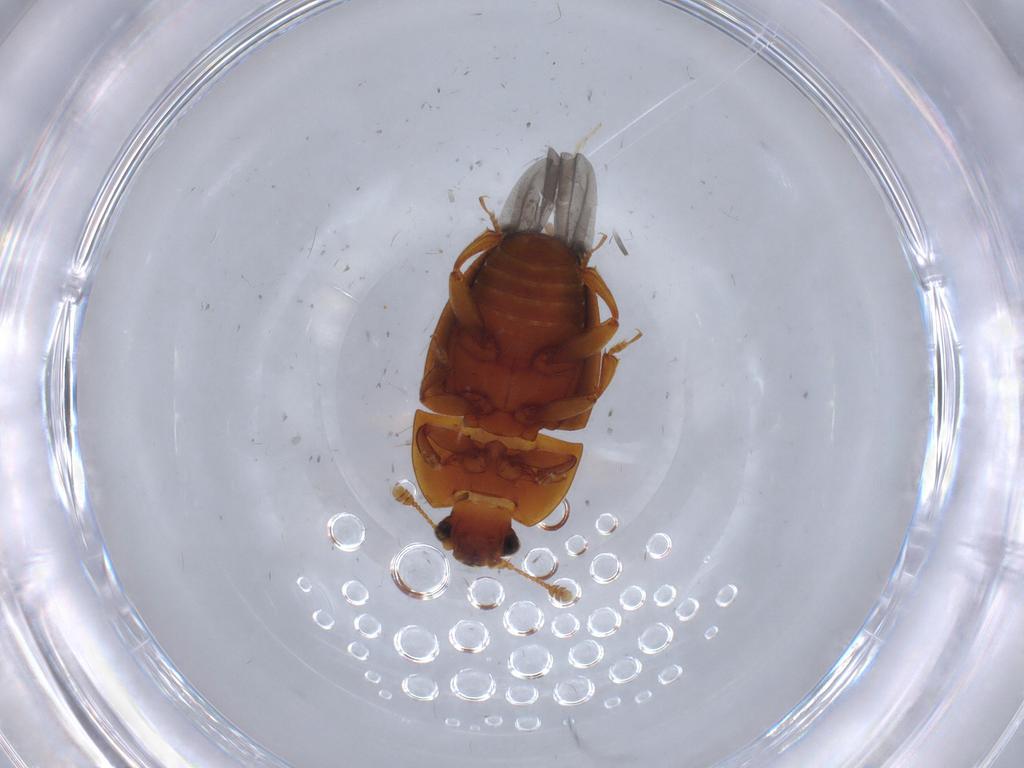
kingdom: Animalia
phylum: Arthropoda
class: Insecta
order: Coleoptera
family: Nitidulidae
